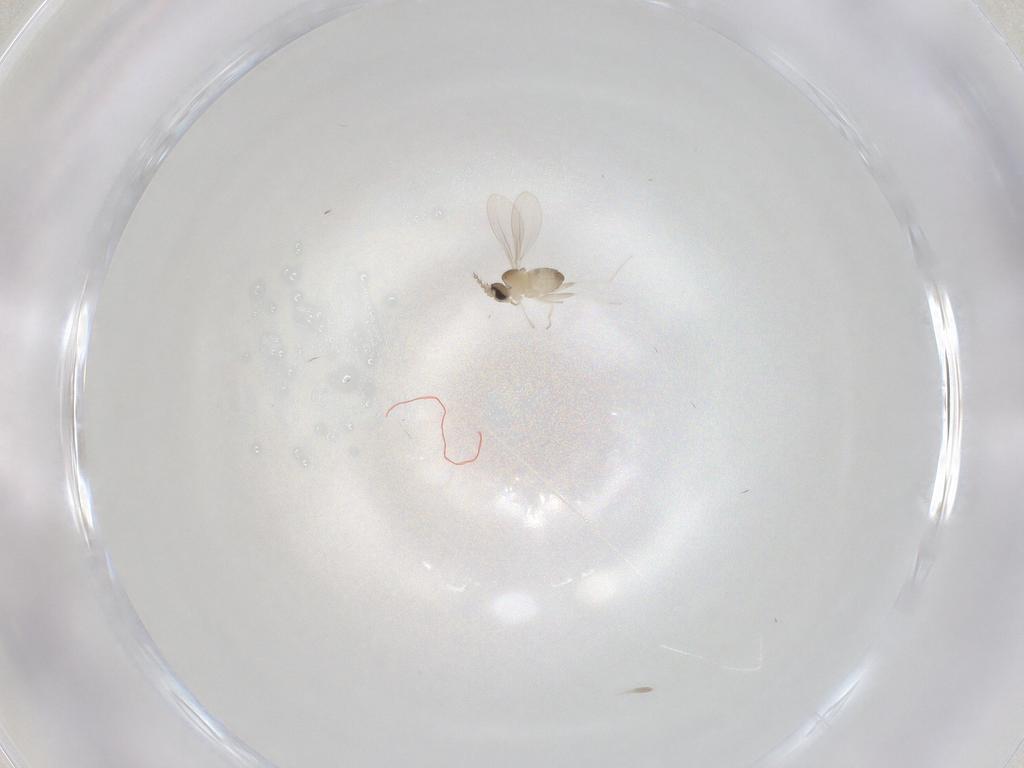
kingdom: Animalia
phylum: Arthropoda
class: Insecta
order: Diptera
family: Cecidomyiidae
